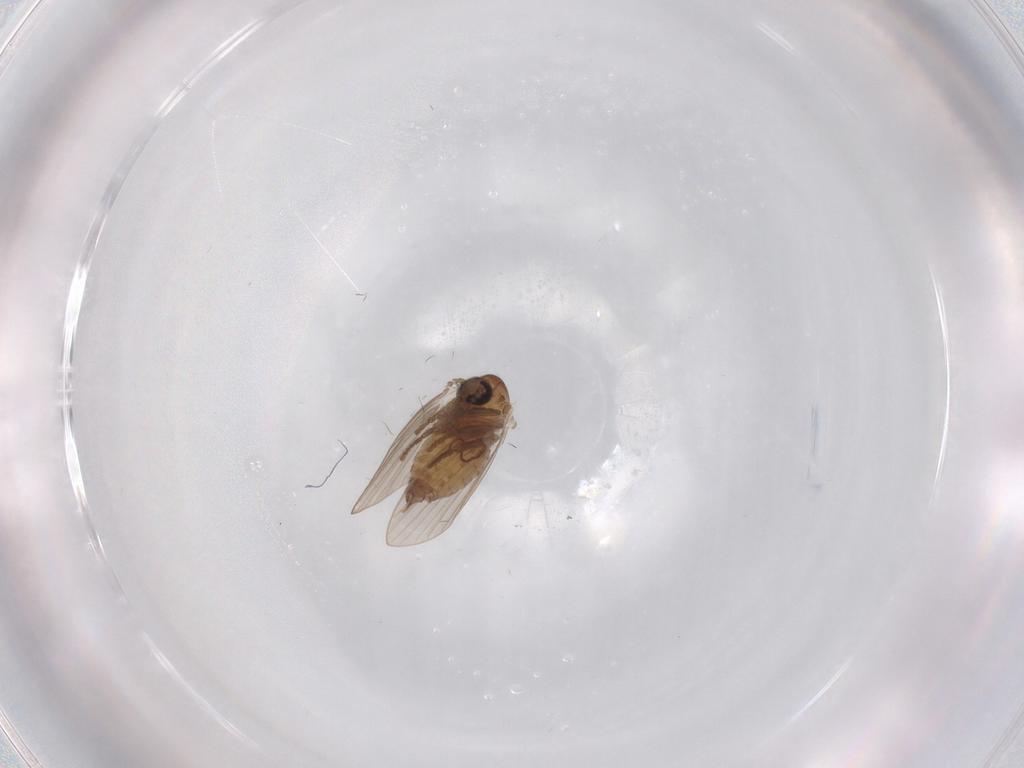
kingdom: Animalia
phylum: Arthropoda
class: Insecta
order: Diptera
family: Psychodidae
